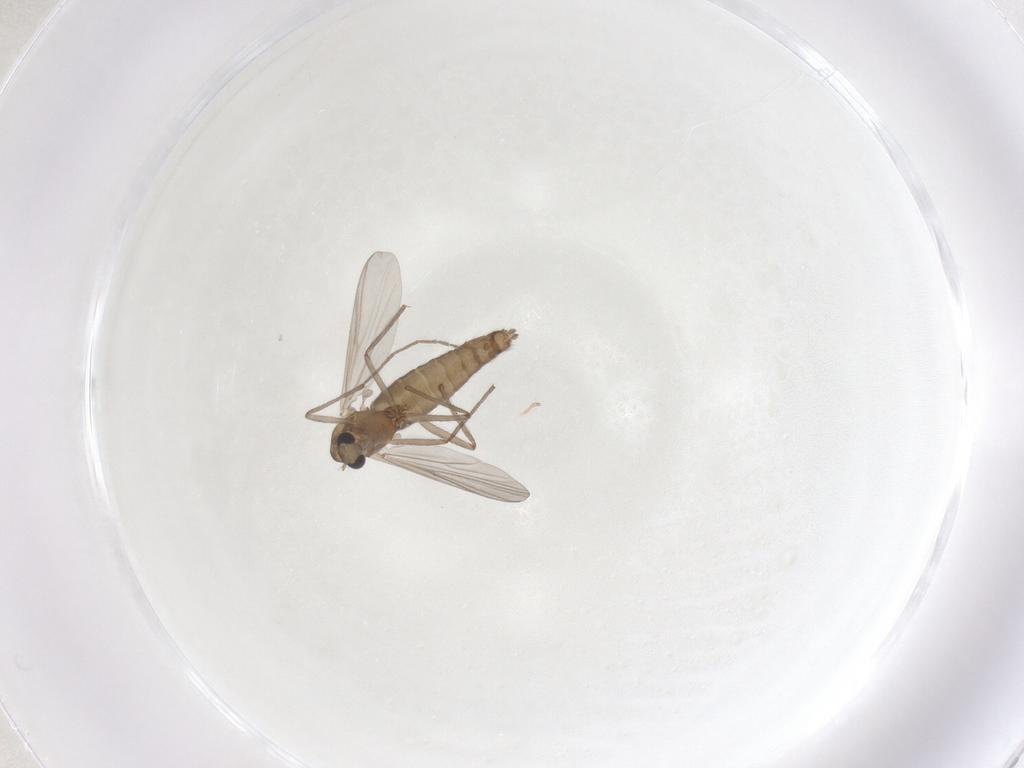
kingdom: Animalia
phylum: Arthropoda
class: Insecta
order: Diptera
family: Chironomidae
